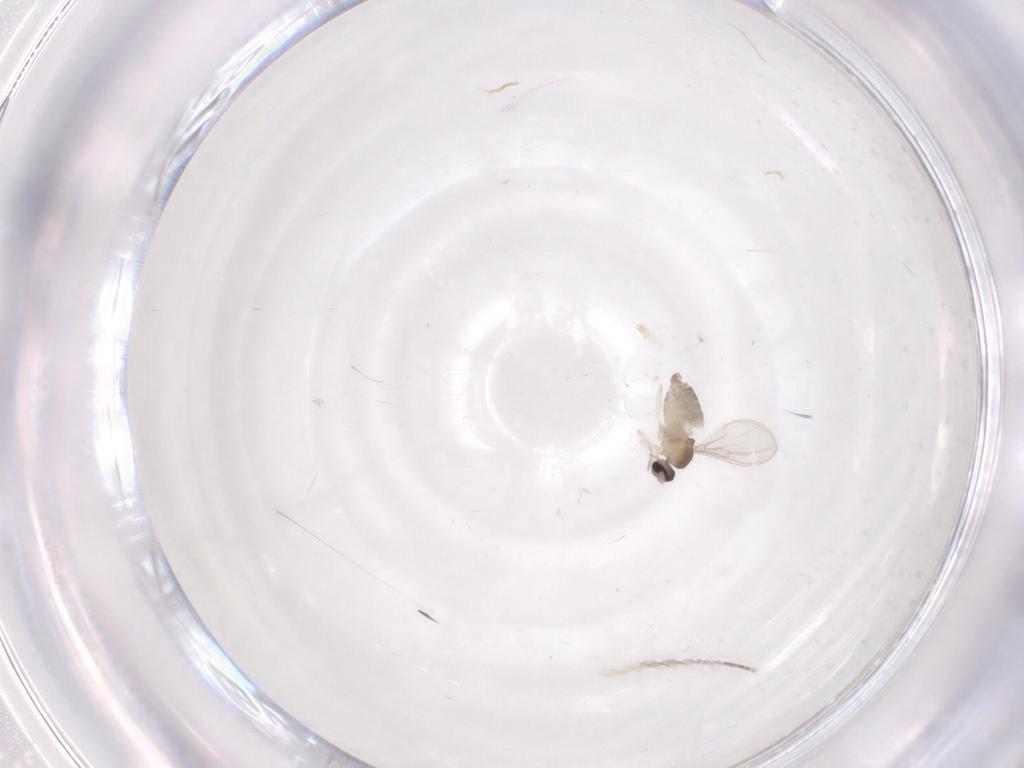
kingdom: Animalia
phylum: Arthropoda
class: Insecta
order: Diptera
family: Cecidomyiidae
